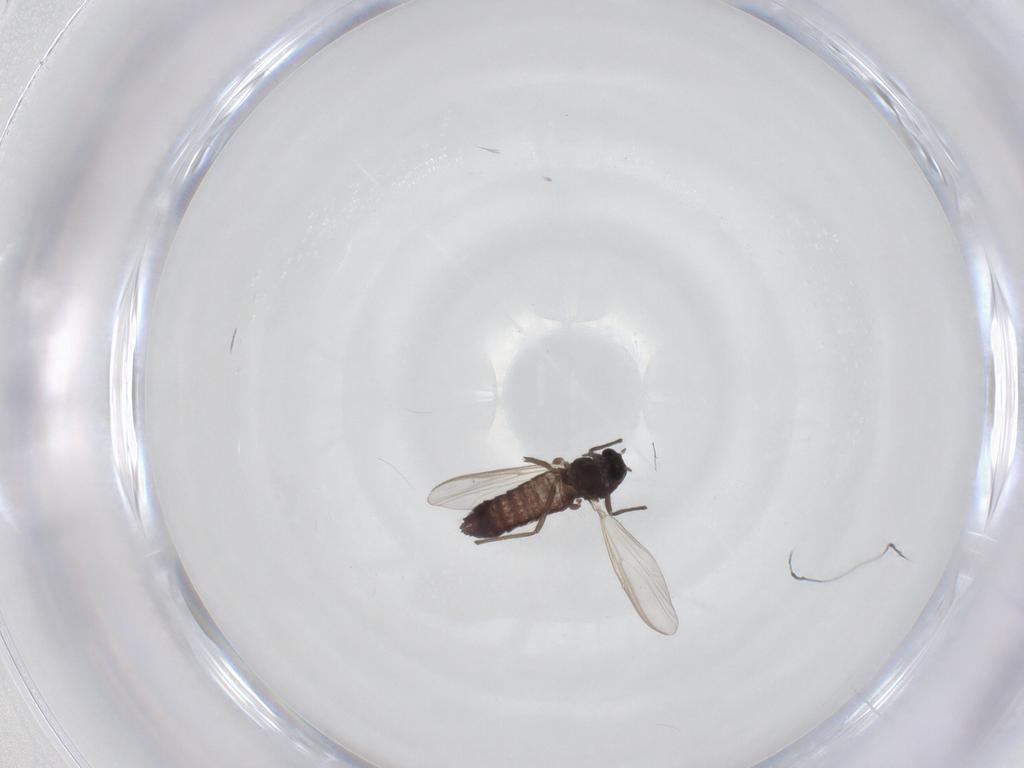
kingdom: Animalia
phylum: Arthropoda
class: Insecta
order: Diptera
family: Chironomidae
